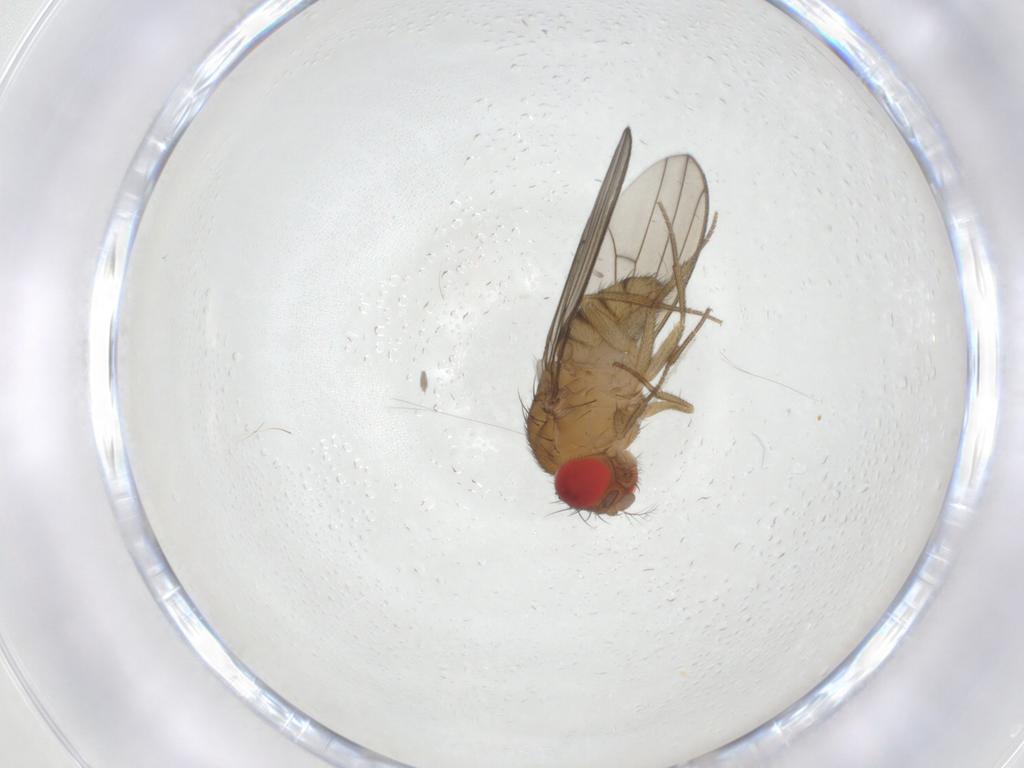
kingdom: Animalia
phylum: Arthropoda
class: Insecta
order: Diptera
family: Drosophilidae
